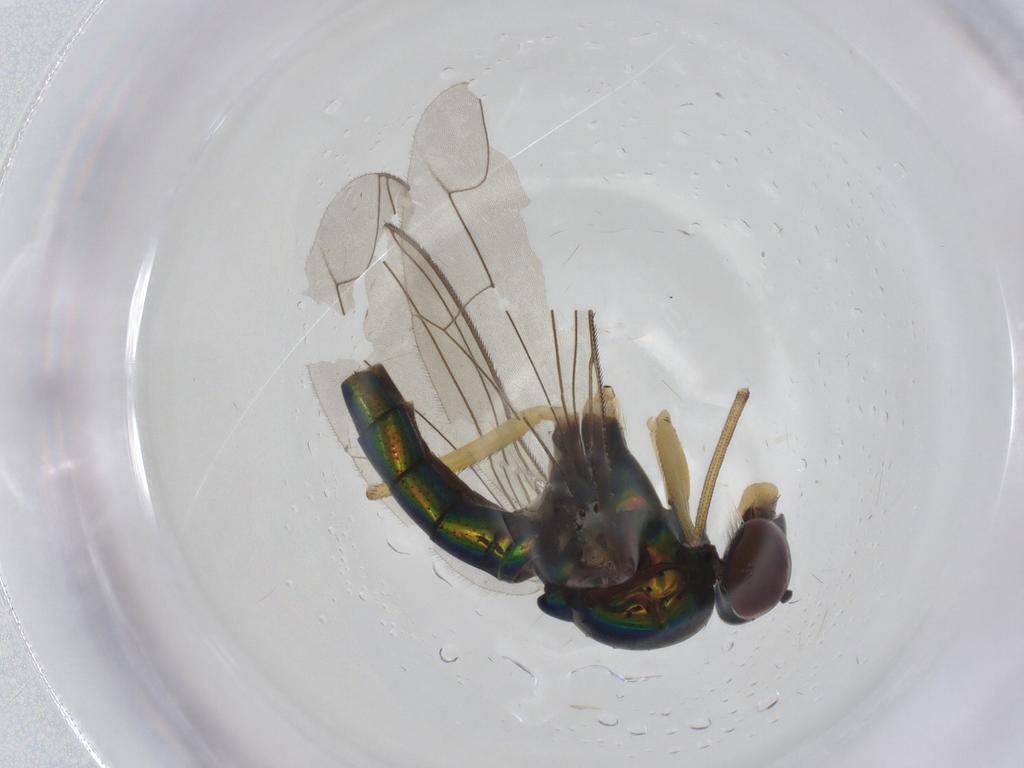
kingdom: Animalia
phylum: Arthropoda
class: Insecta
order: Diptera
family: Dolichopodidae
